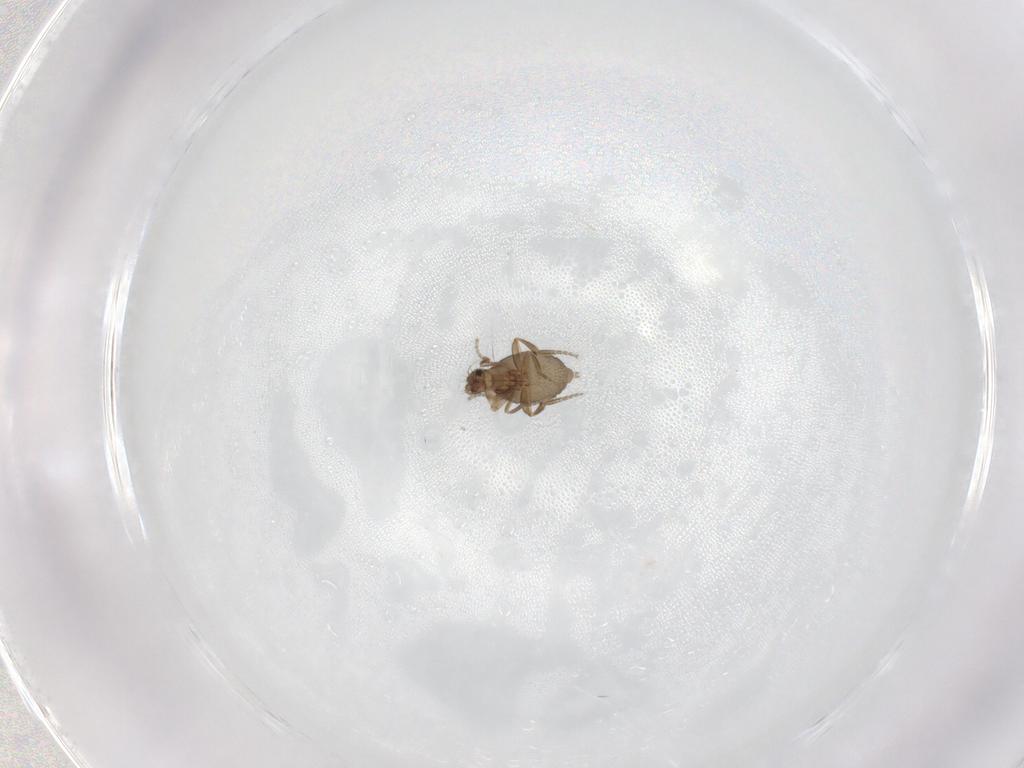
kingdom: Animalia
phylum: Arthropoda
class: Insecta
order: Diptera
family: Phoridae
